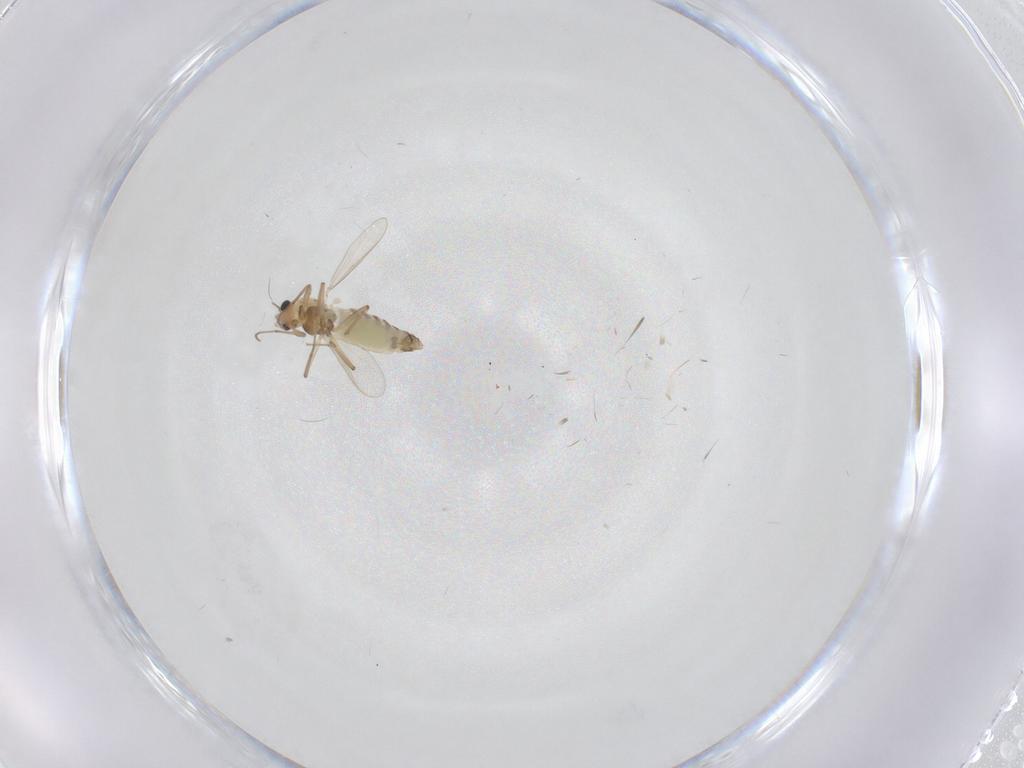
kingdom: Animalia
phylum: Arthropoda
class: Insecta
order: Diptera
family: Chironomidae
